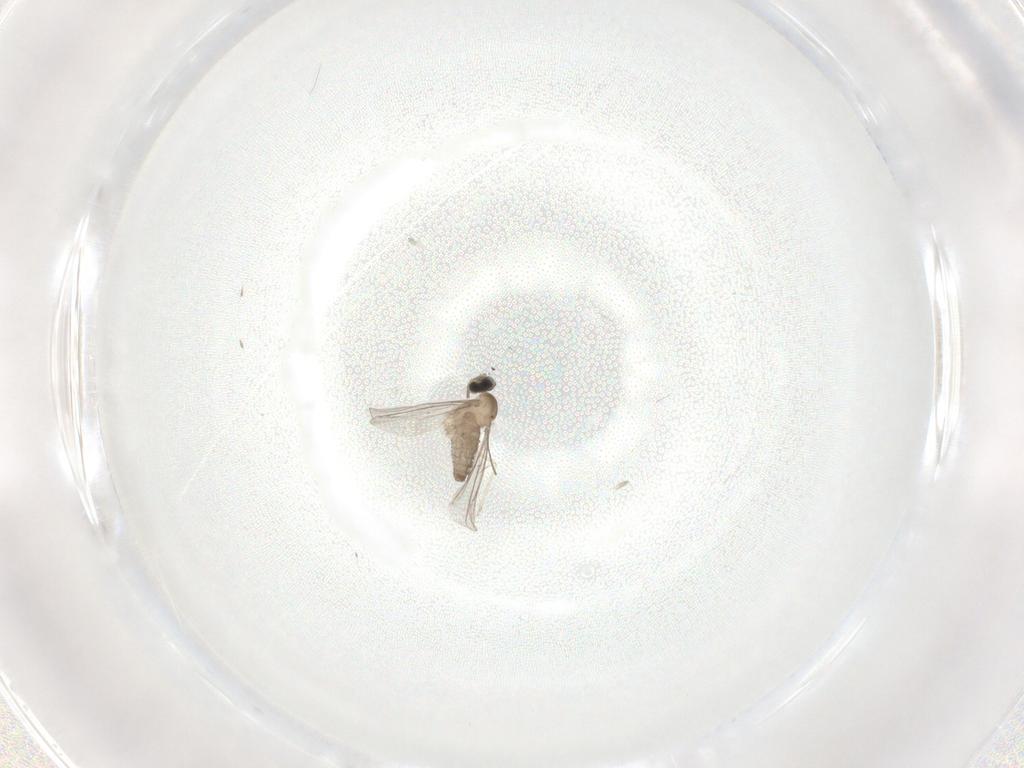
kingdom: Animalia
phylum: Arthropoda
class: Insecta
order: Diptera
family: Cecidomyiidae
